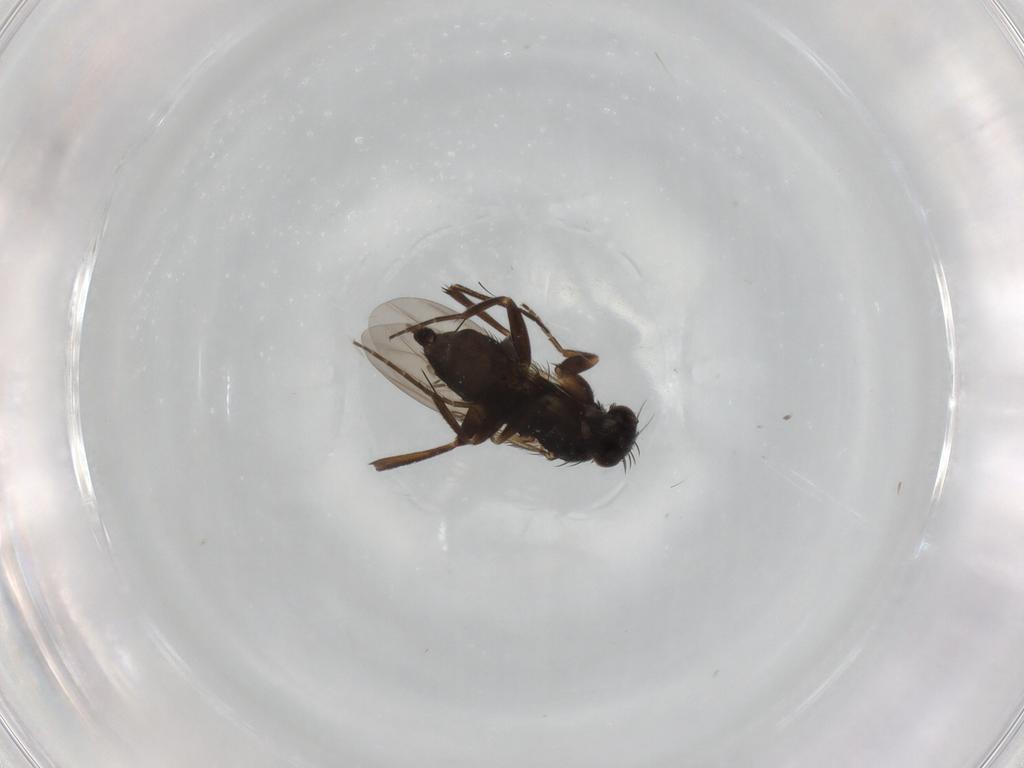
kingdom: Animalia
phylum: Arthropoda
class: Insecta
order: Diptera
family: Phoridae
